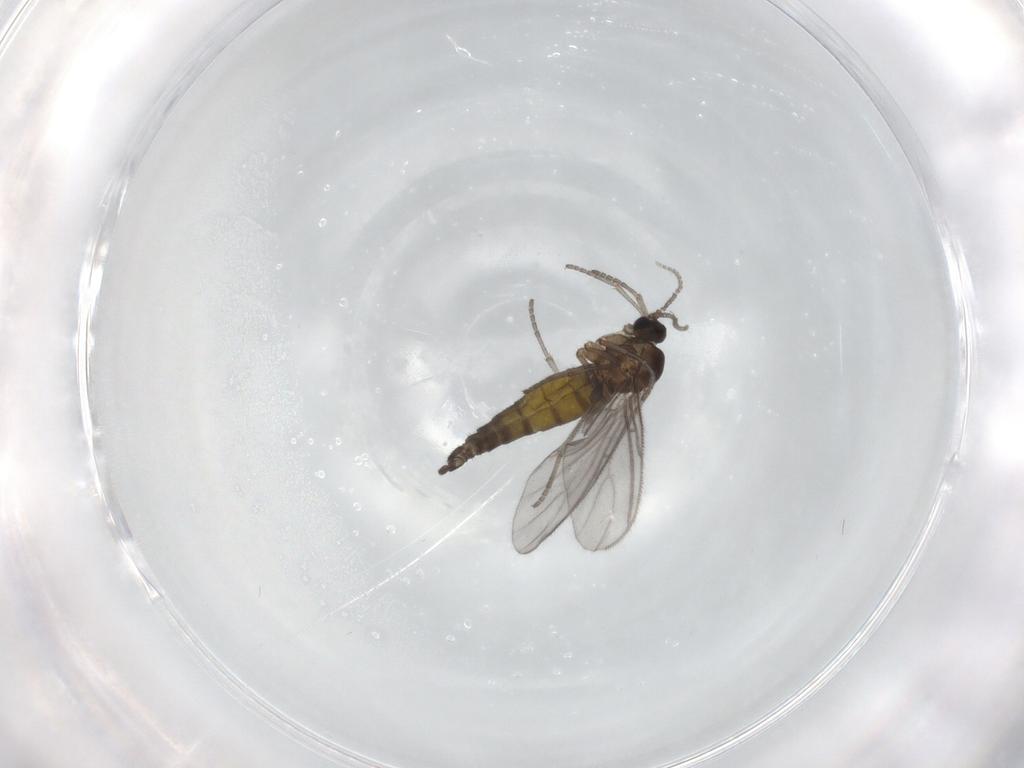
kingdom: Animalia
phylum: Arthropoda
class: Insecta
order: Diptera
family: Sciaridae
